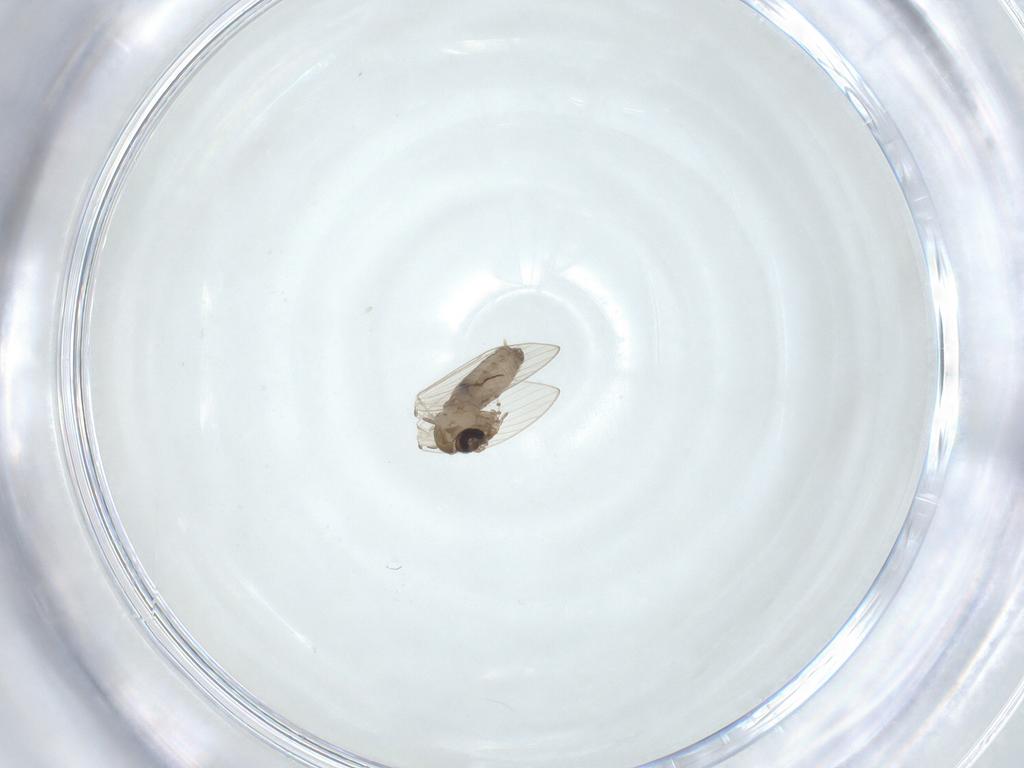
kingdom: Animalia
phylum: Arthropoda
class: Insecta
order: Diptera
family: Psychodidae
